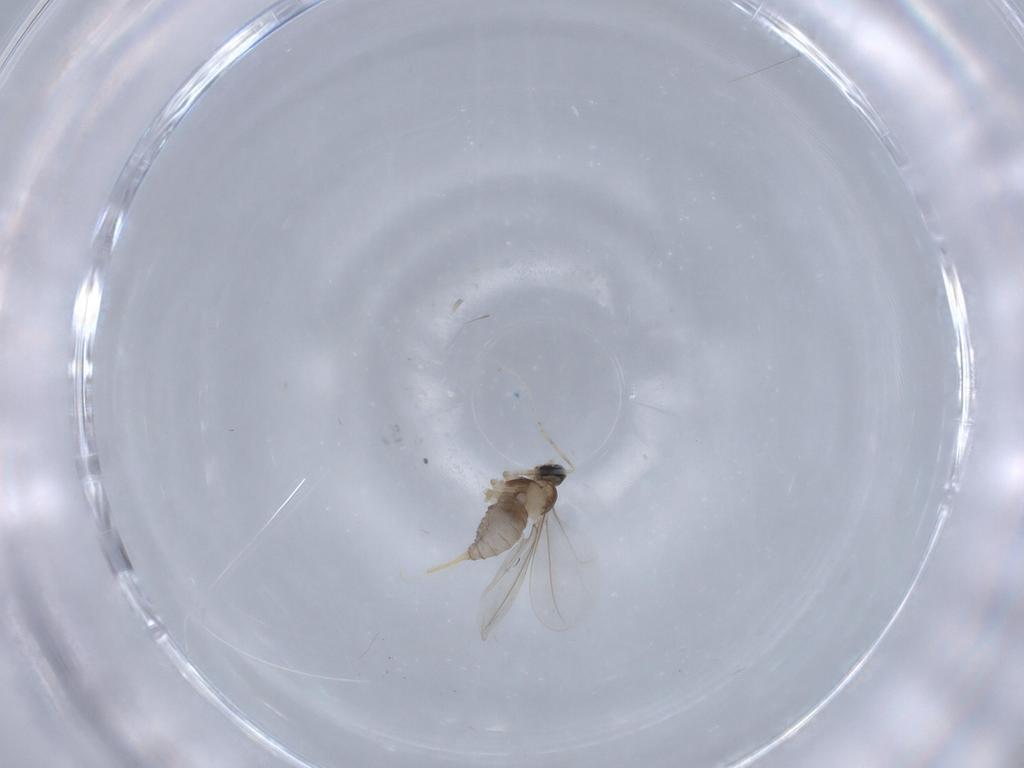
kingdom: Animalia
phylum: Arthropoda
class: Insecta
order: Diptera
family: Cecidomyiidae
